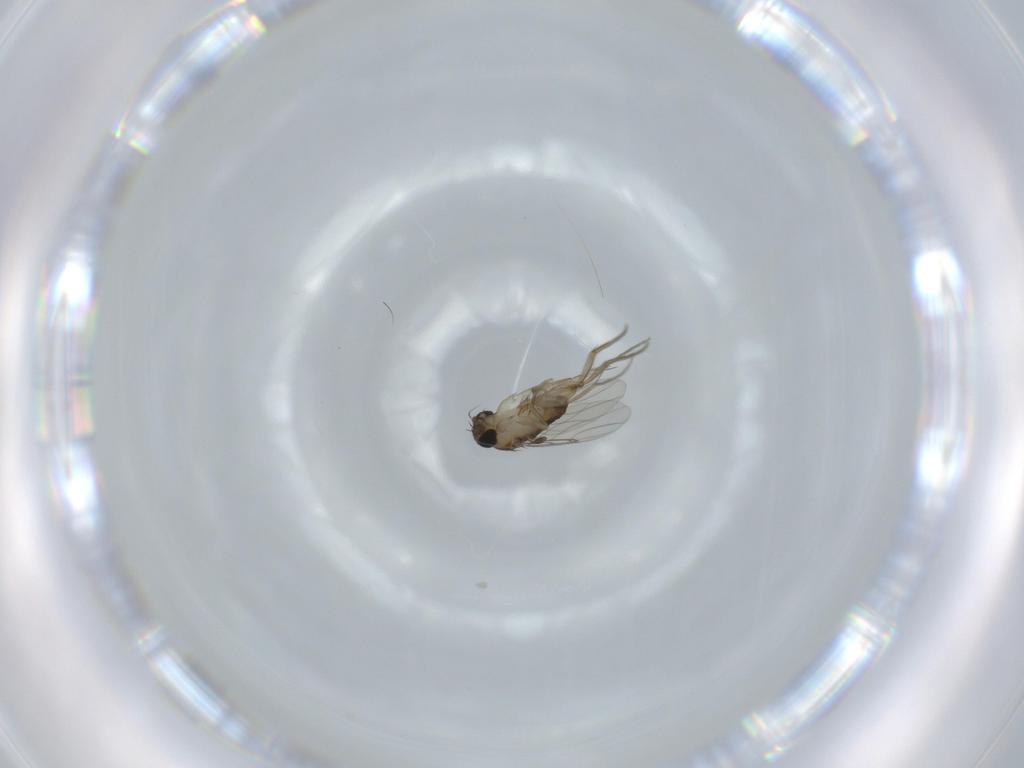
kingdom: Animalia
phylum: Arthropoda
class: Insecta
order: Diptera
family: Phoridae
